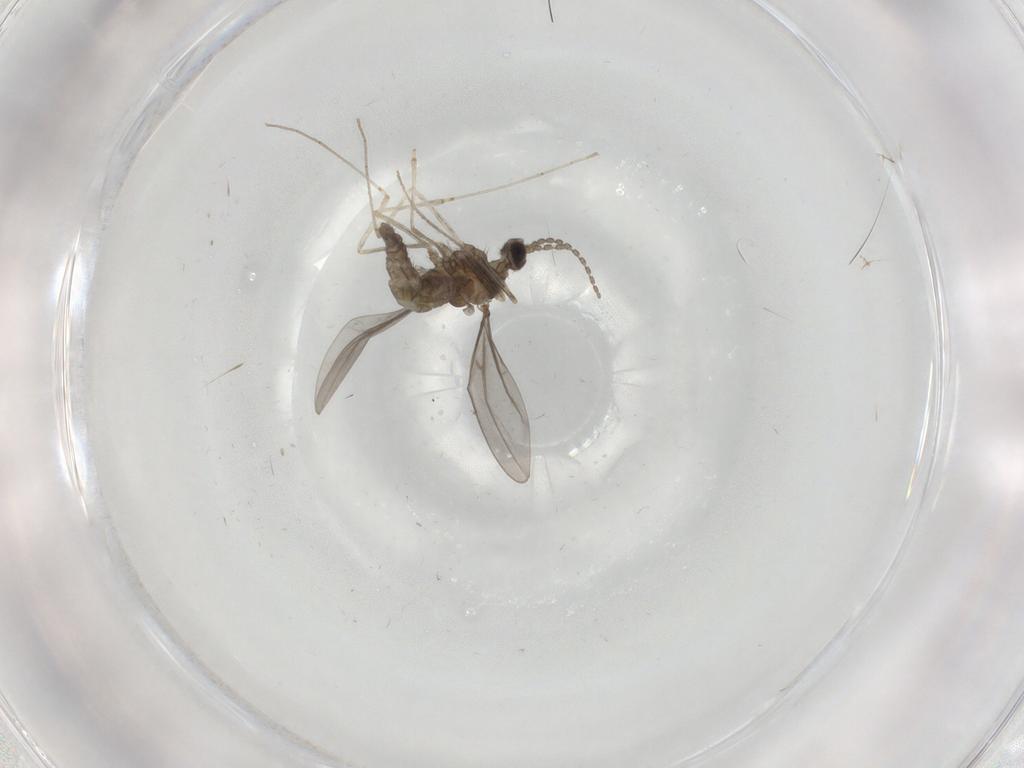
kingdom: Animalia
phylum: Arthropoda
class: Insecta
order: Diptera
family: Cecidomyiidae
